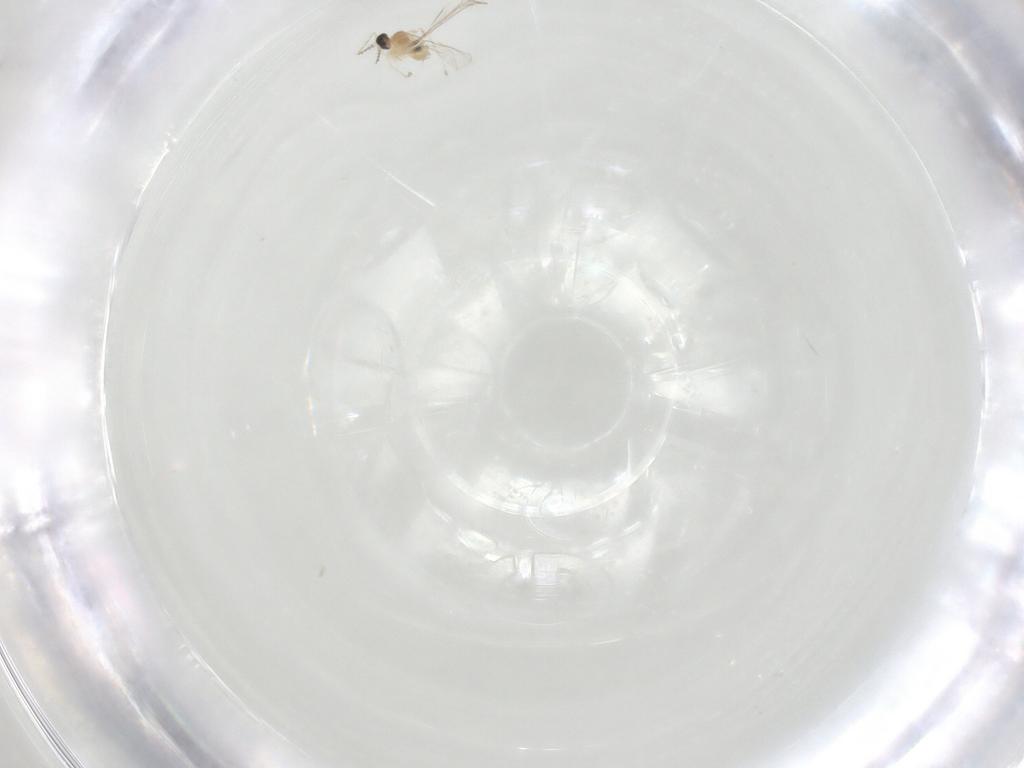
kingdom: Animalia
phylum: Arthropoda
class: Insecta
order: Diptera
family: Cecidomyiidae
